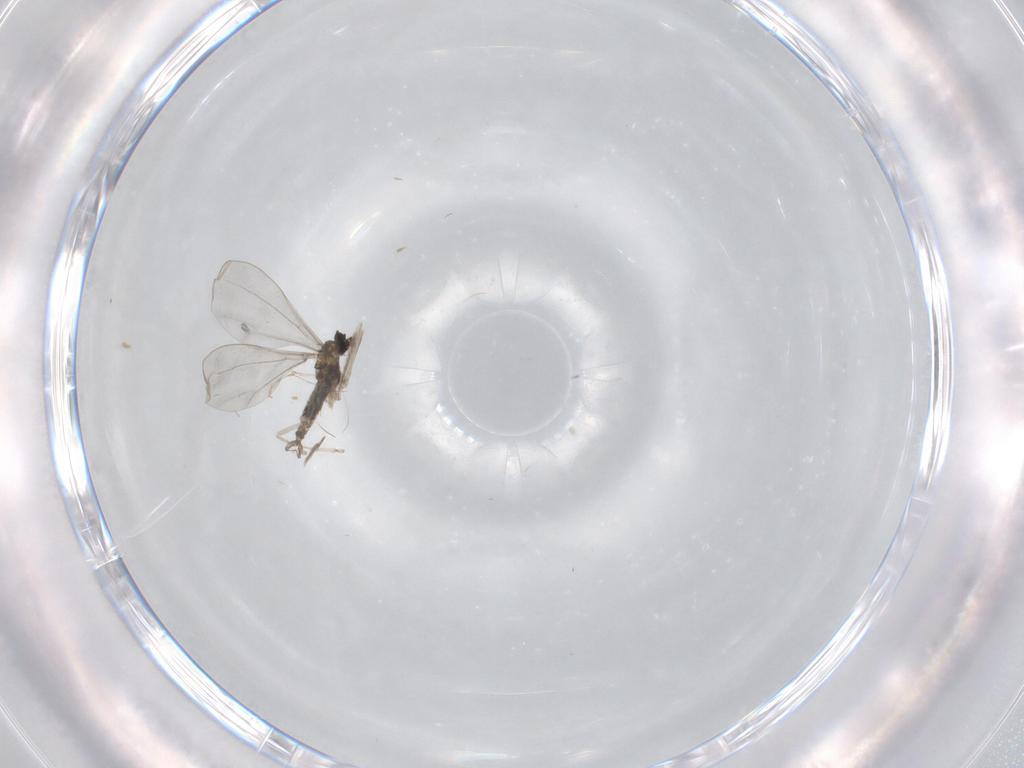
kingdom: Animalia
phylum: Arthropoda
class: Insecta
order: Diptera
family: Cecidomyiidae
